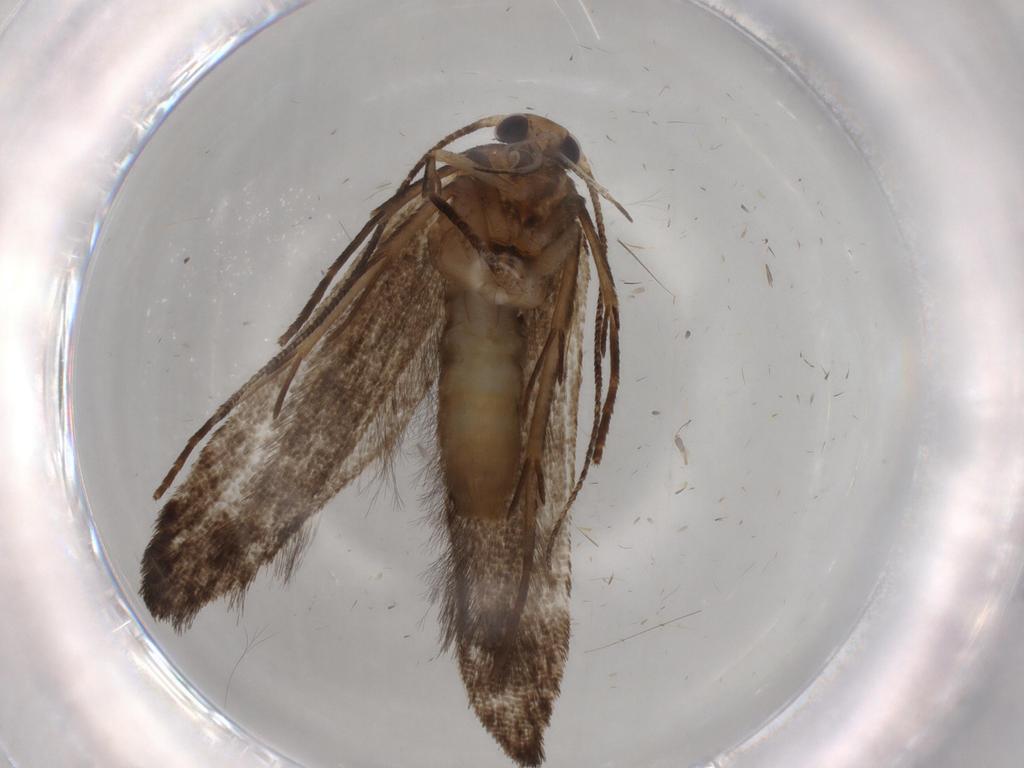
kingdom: Animalia
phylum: Arthropoda
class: Insecta
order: Lepidoptera
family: Cosmopterigidae
